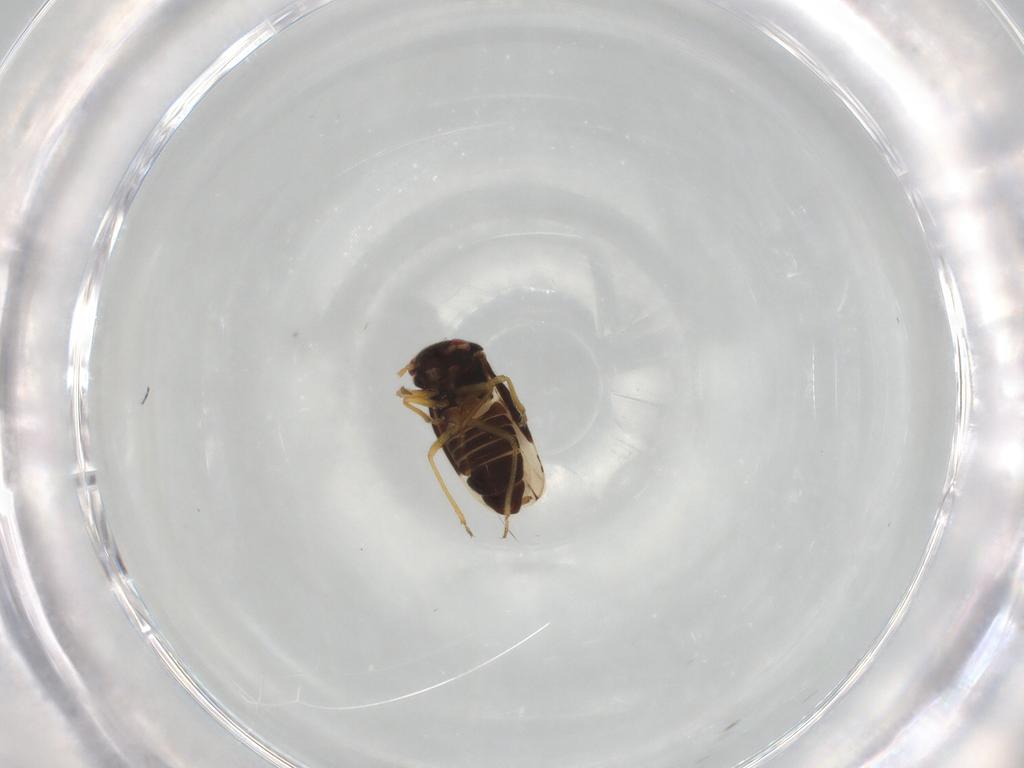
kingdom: Animalia
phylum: Arthropoda
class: Insecta
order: Hemiptera
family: Schizopteridae
